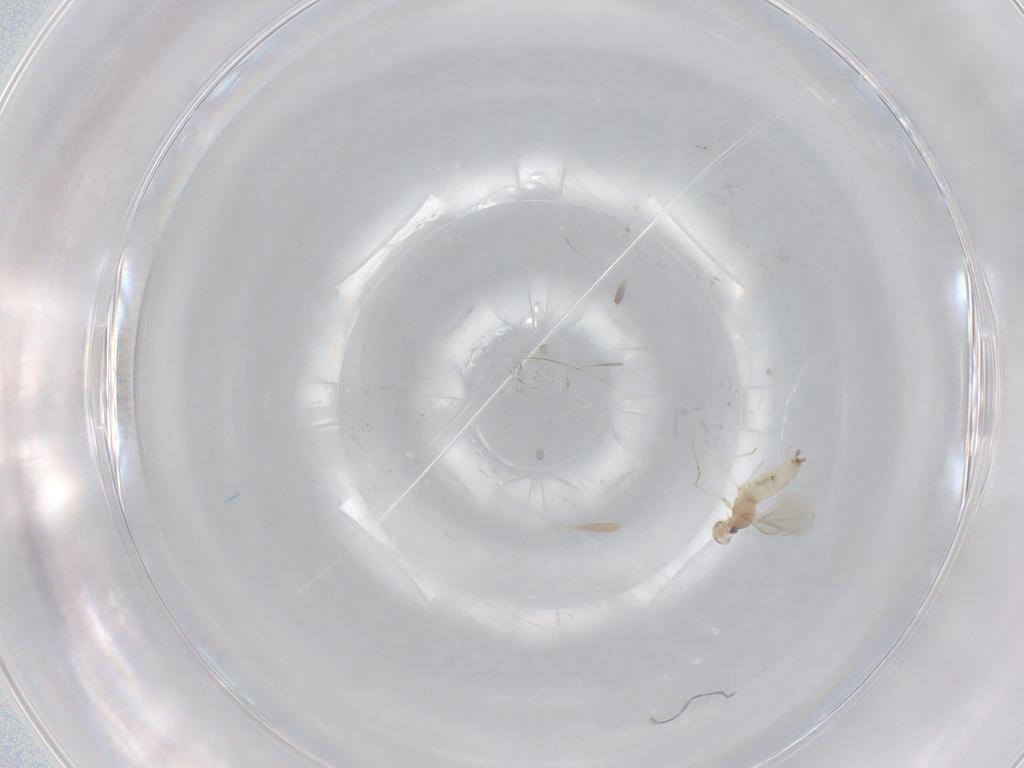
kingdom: Animalia
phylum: Arthropoda
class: Insecta
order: Diptera
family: Cecidomyiidae
